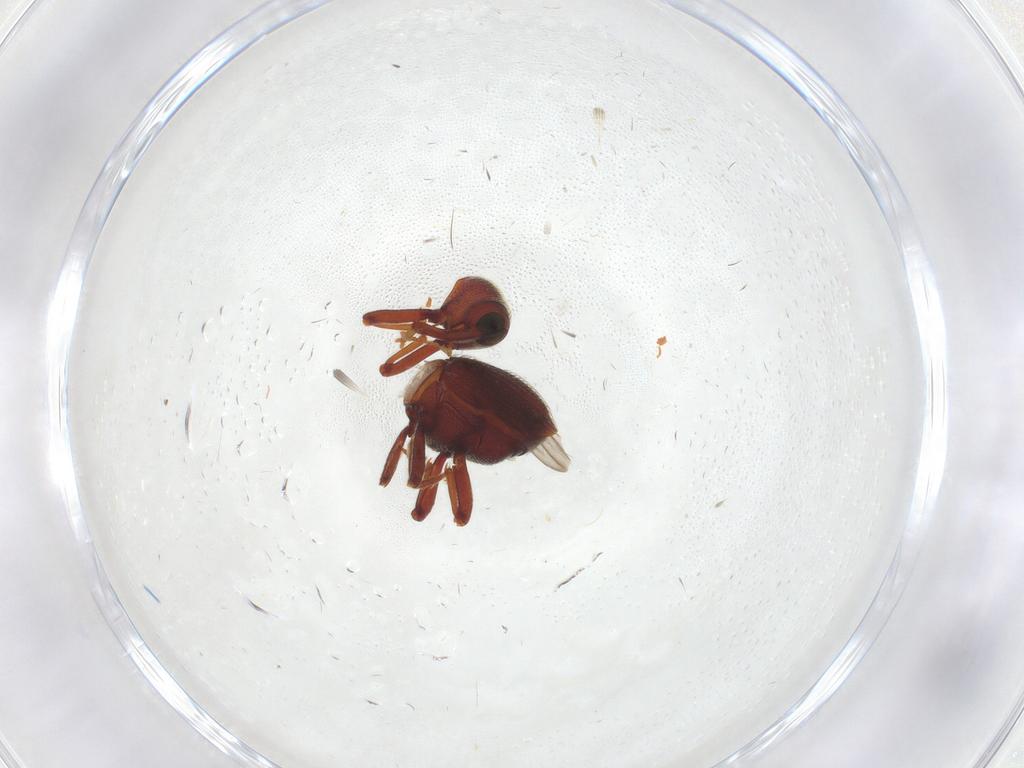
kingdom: Animalia
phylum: Arthropoda
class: Insecta
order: Coleoptera
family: Curculionidae
